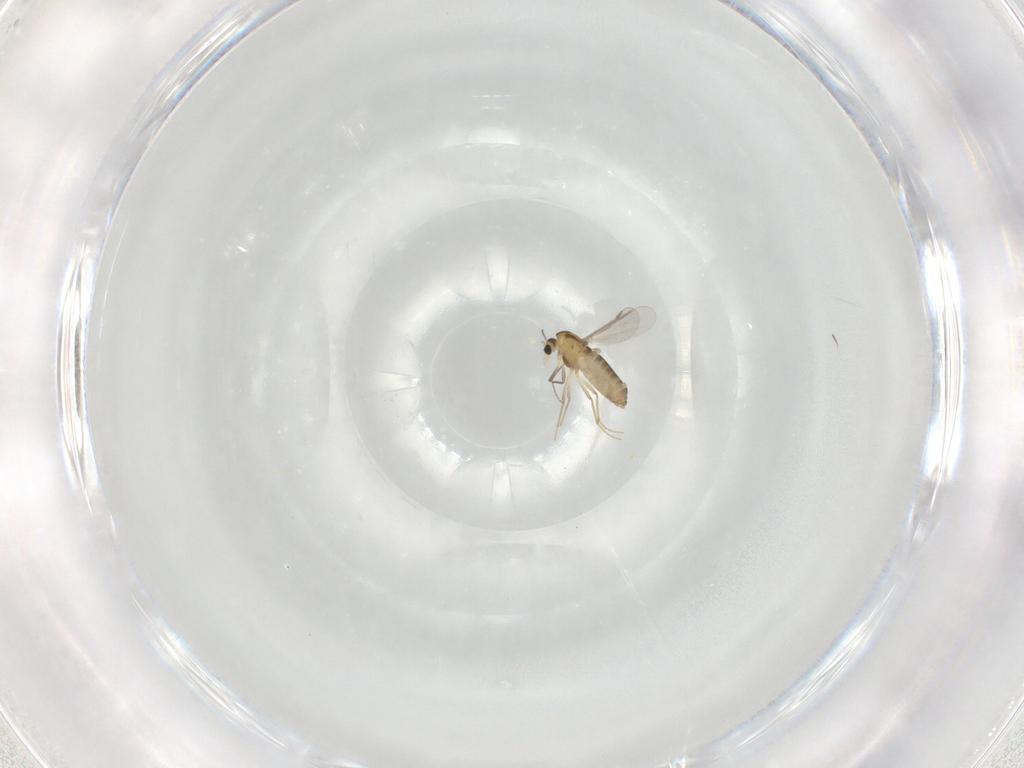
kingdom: Animalia
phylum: Arthropoda
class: Insecta
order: Diptera
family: Chironomidae
